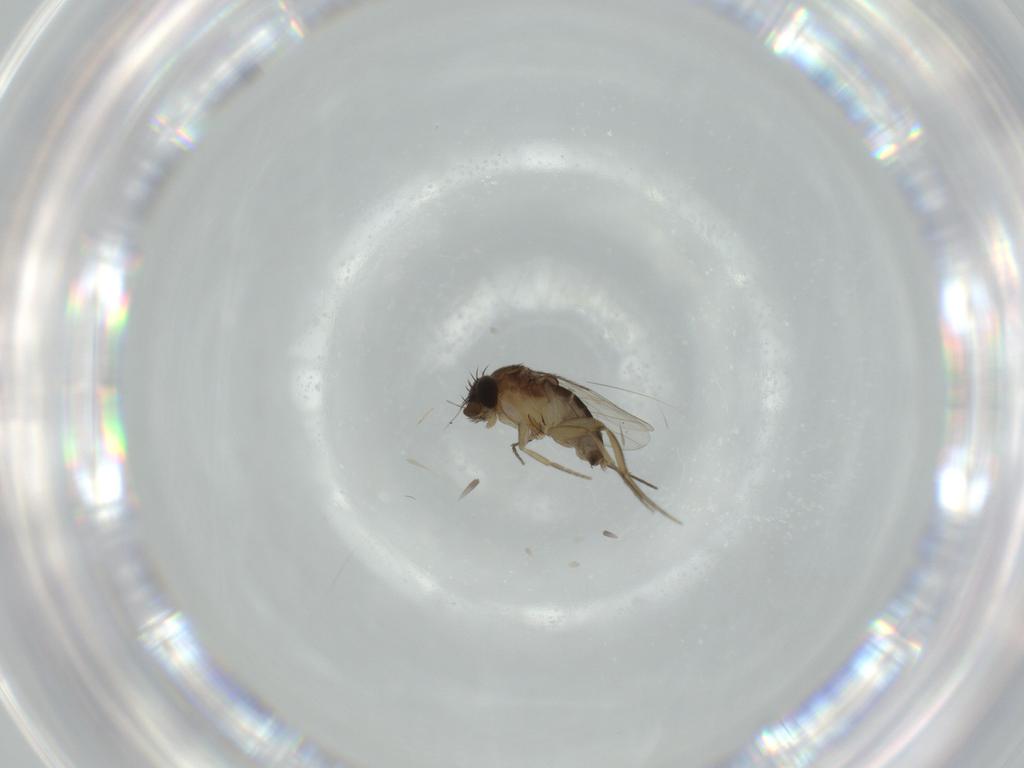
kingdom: Animalia
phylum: Arthropoda
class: Insecta
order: Diptera
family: Phoridae
